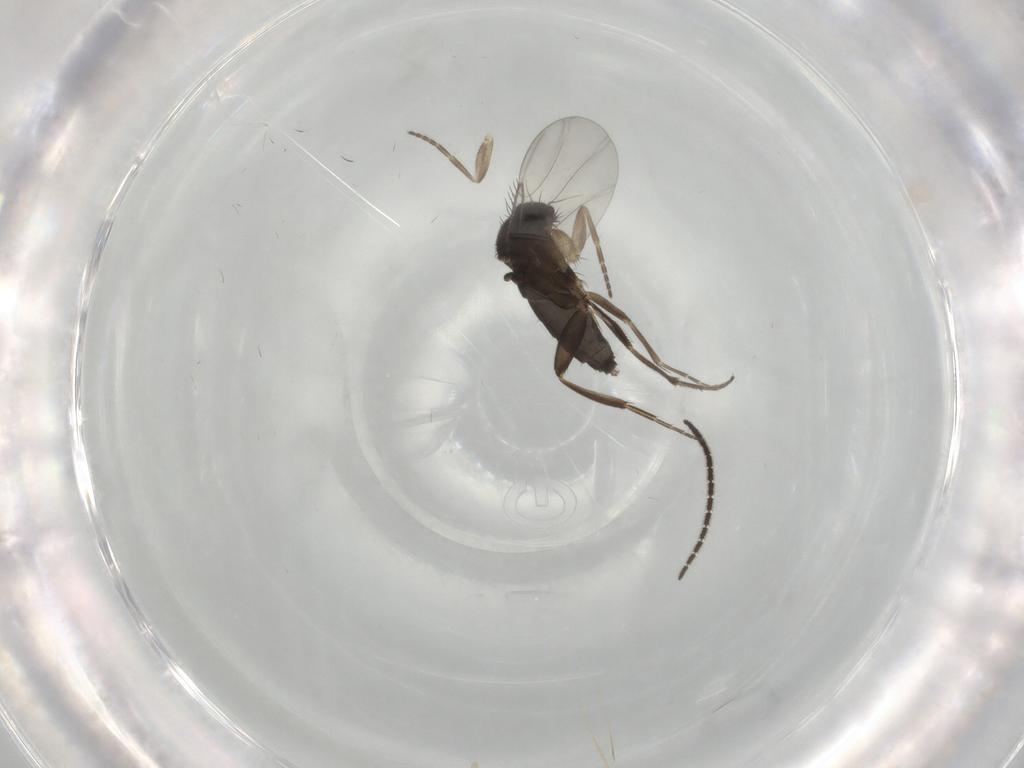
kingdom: Animalia
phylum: Arthropoda
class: Insecta
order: Diptera
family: Phoridae
